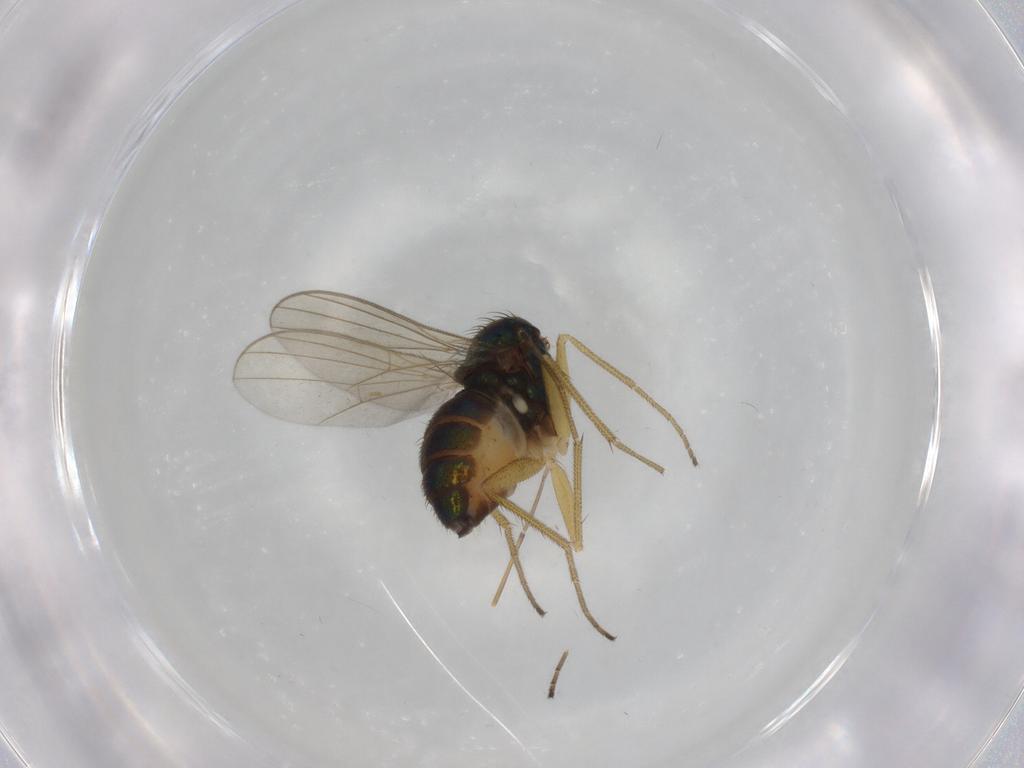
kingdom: Animalia
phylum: Arthropoda
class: Insecta
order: Diptera
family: Dolichopodidae
